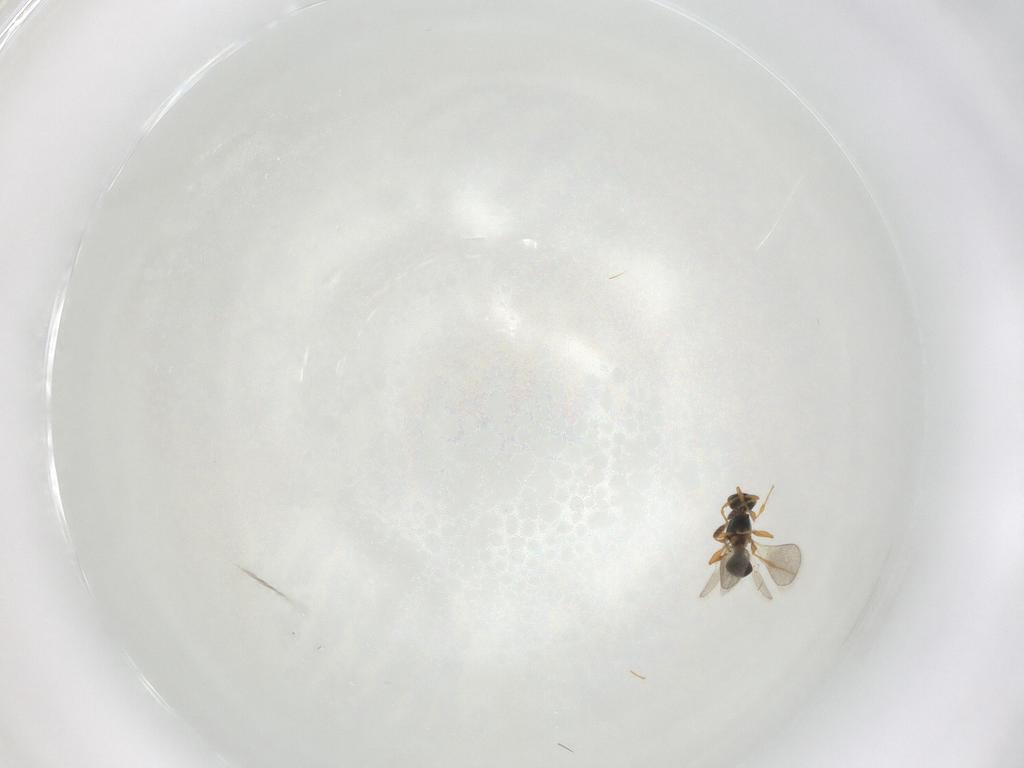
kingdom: Animalia
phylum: Arthropoda
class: Insecta
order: Hymenoptera
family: Platygastridae
